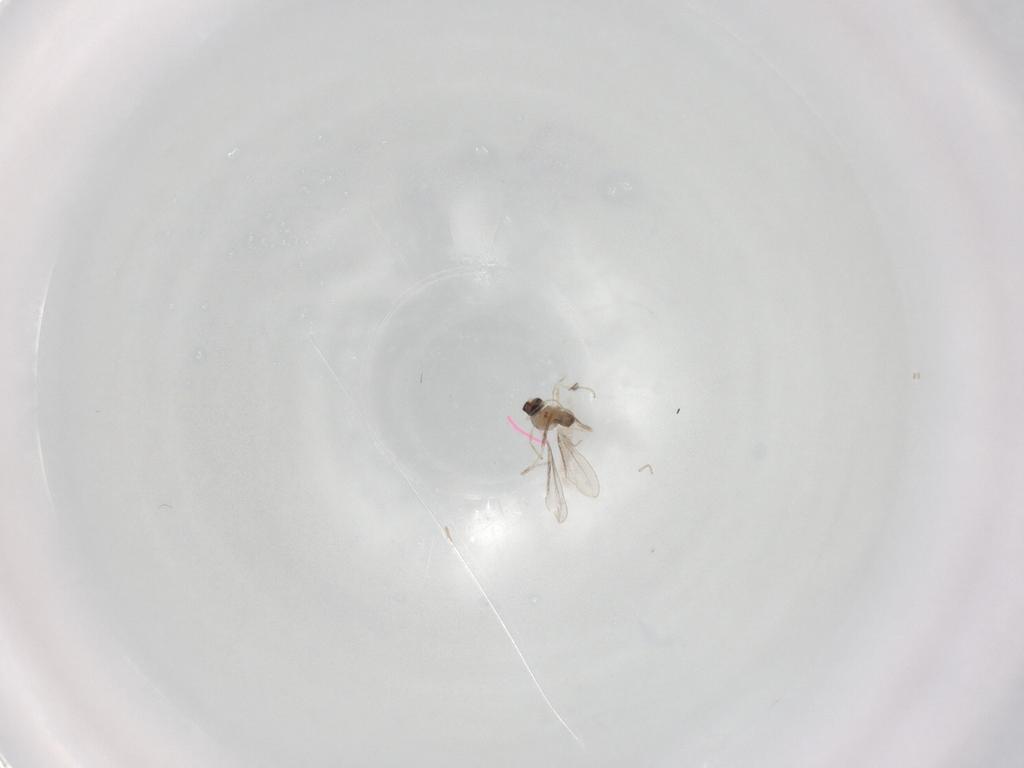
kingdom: Animalia
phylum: Arthropoda
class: Insecta
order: Diptera
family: Cecidomyiidae
